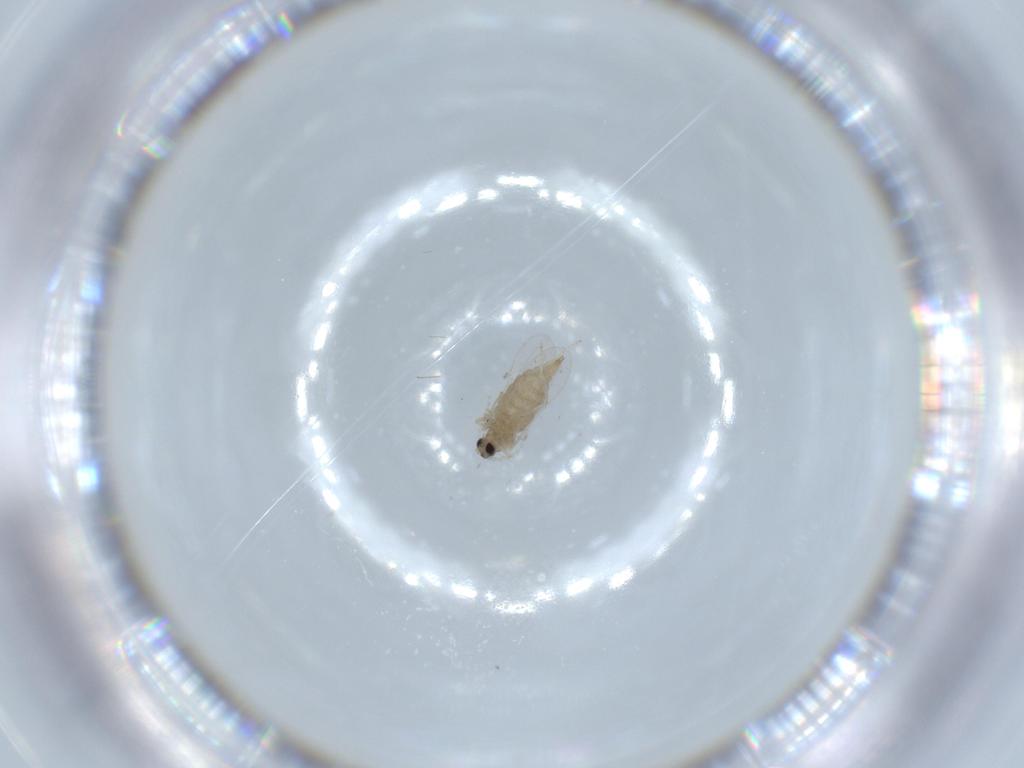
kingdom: Animalia
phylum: Arthropoda
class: Insecta
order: Diptera
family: Cecidomyiidae
